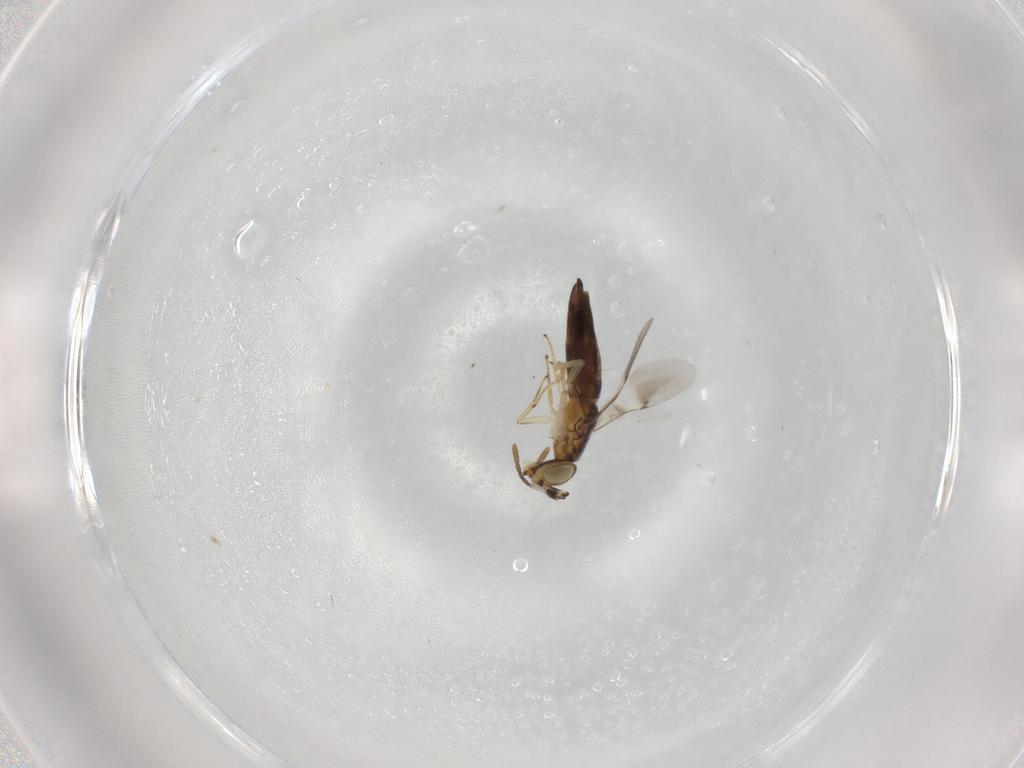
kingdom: Animalia
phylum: Arthropoda
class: Insecta
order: Hymenoptera
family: Encyrtidae
